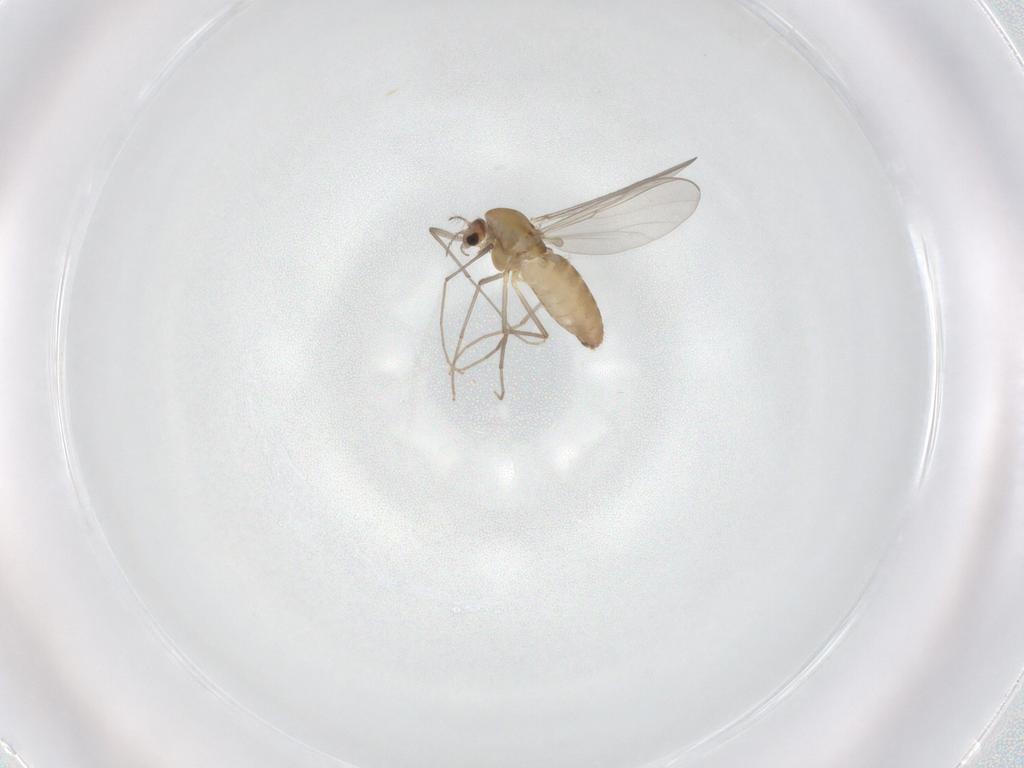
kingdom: Animalia
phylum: Arthropoda
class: Insecta
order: Diptera
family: Chironomidae
